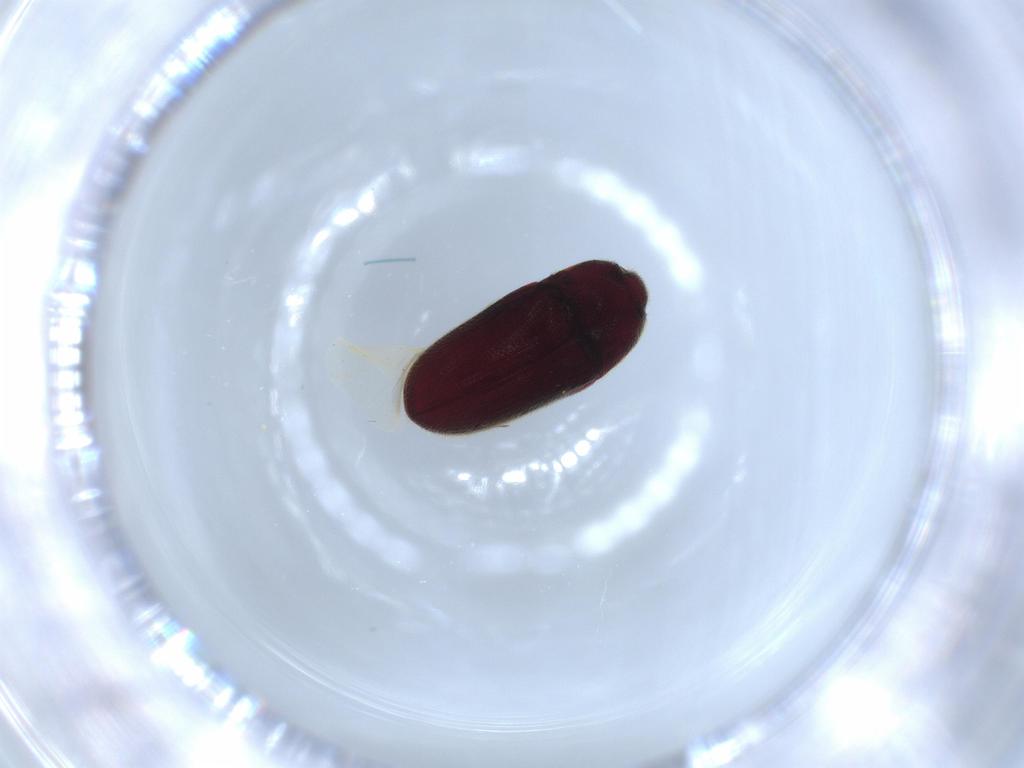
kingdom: Animalia
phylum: Arthropoda
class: Insecta
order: Coleoptera
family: Throscidae
